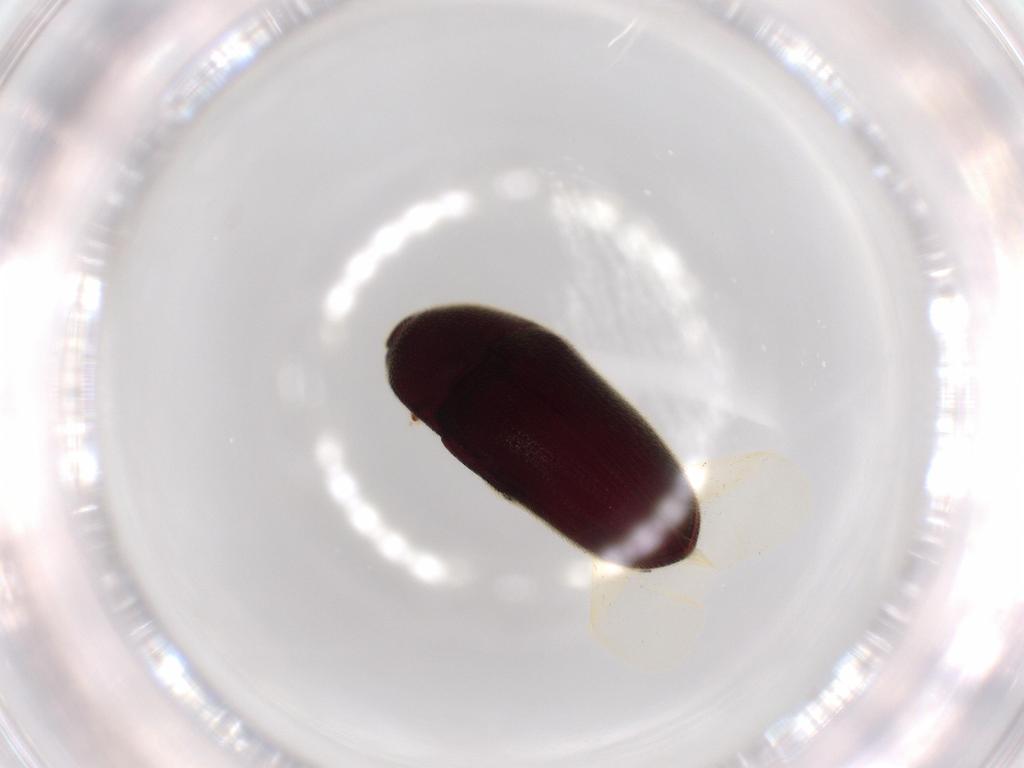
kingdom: Animalia
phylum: Arthropoda
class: Insecta
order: Coleoptera
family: Throscidae
